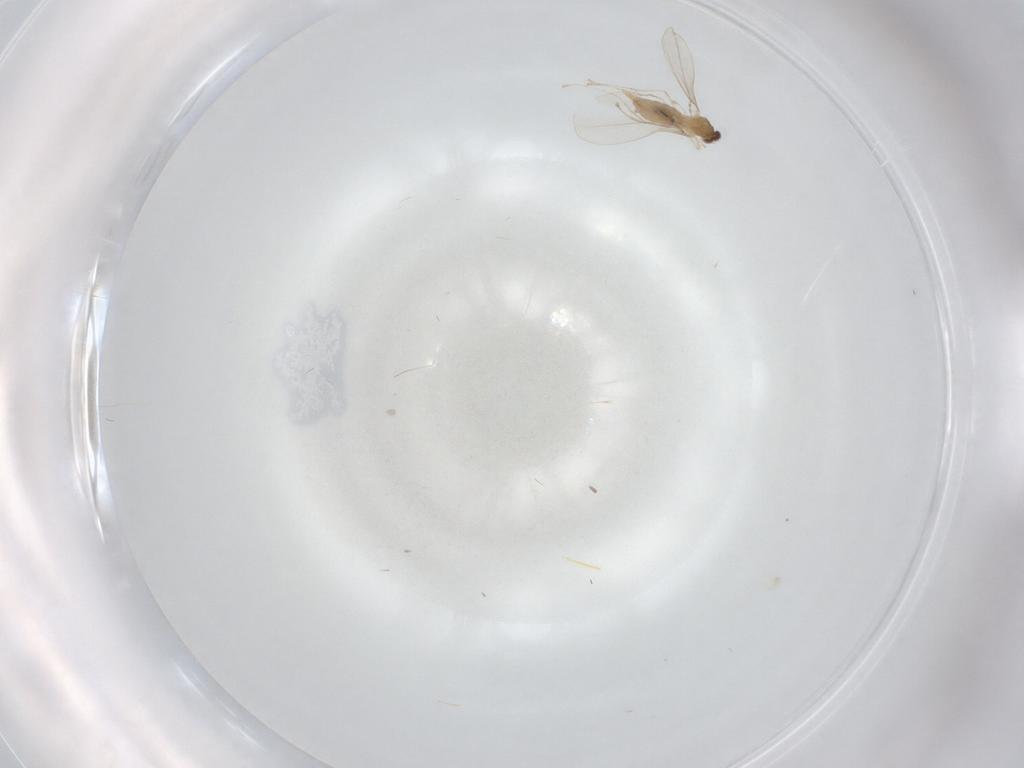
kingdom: Animalia
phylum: Arthropoda
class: Insecta
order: Diptera
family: Cecidomyiidae
